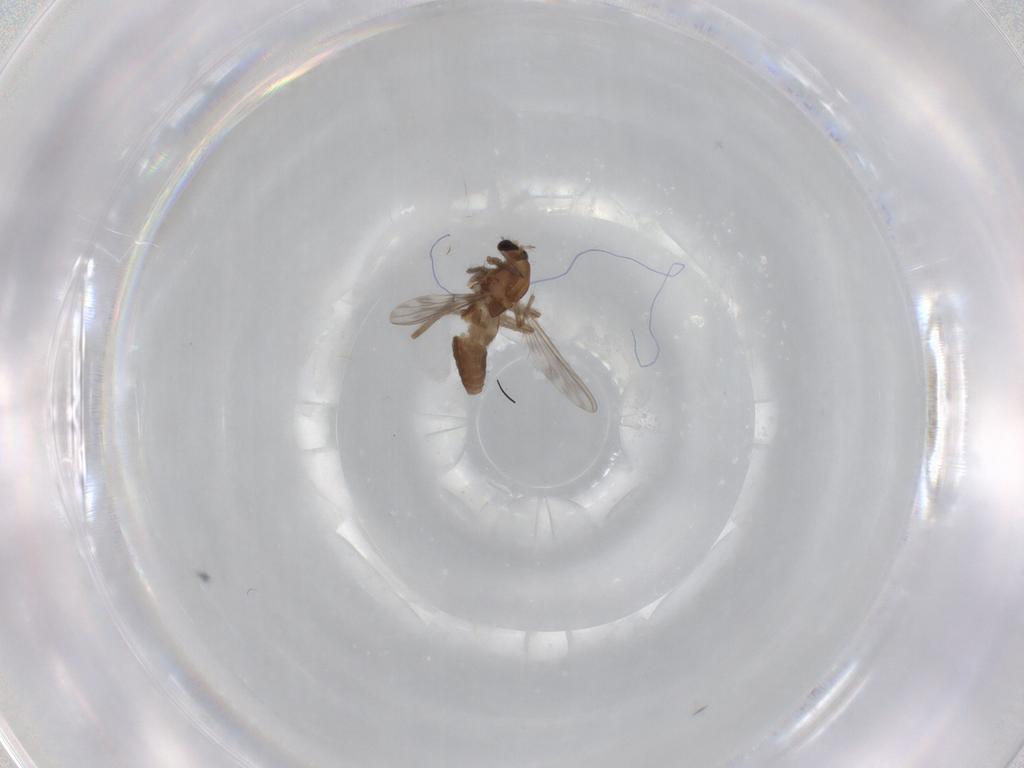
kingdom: Animalia
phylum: Arthropoda
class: Insecta
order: Diptera
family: Chironomidae
